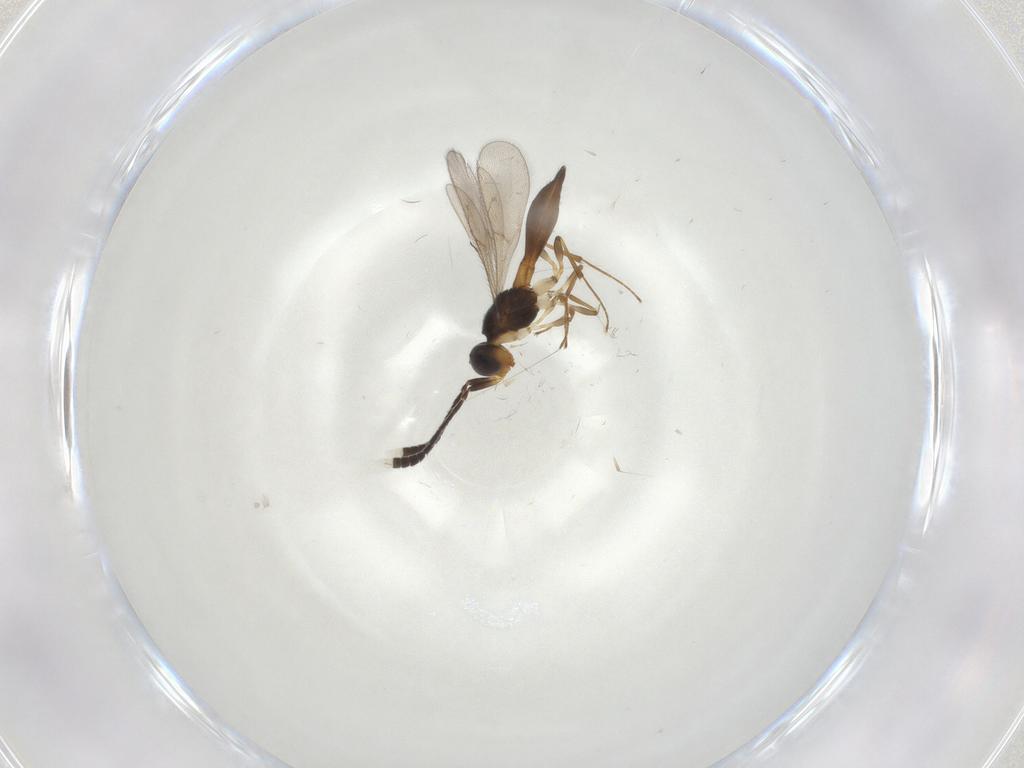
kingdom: Animalia
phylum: Arthropoda
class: Insecta
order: Hymenoptera
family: Scelionidae
